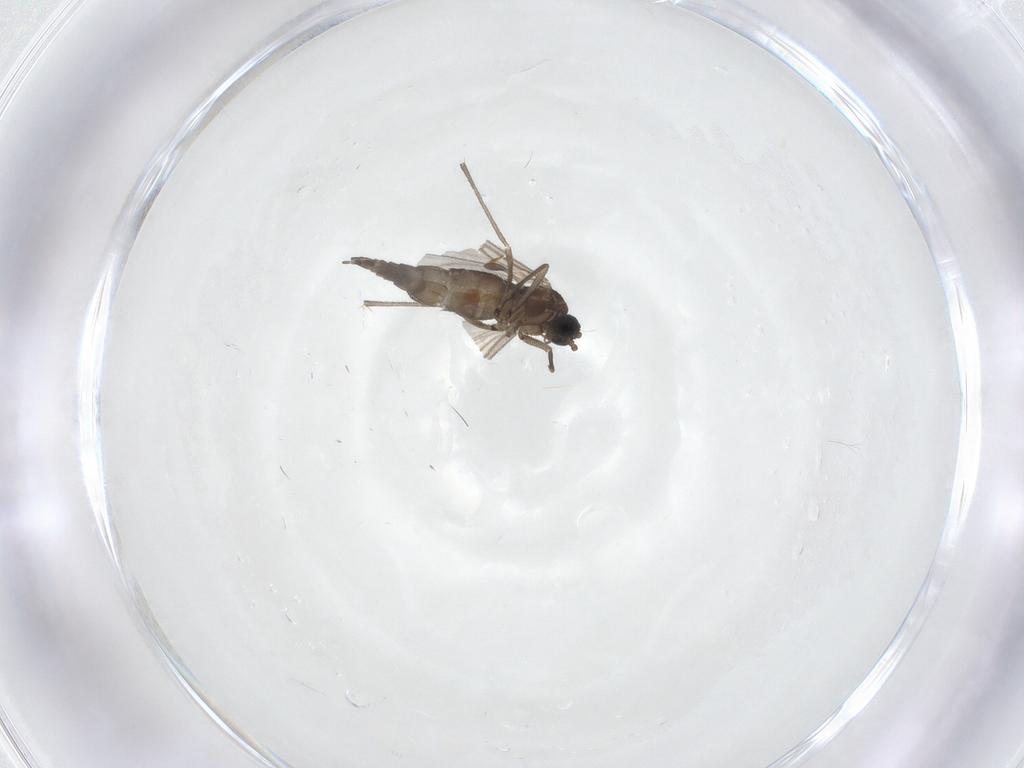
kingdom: Animalia
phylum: Arthropoda
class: Insecta
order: Diptera
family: Sciaridae
